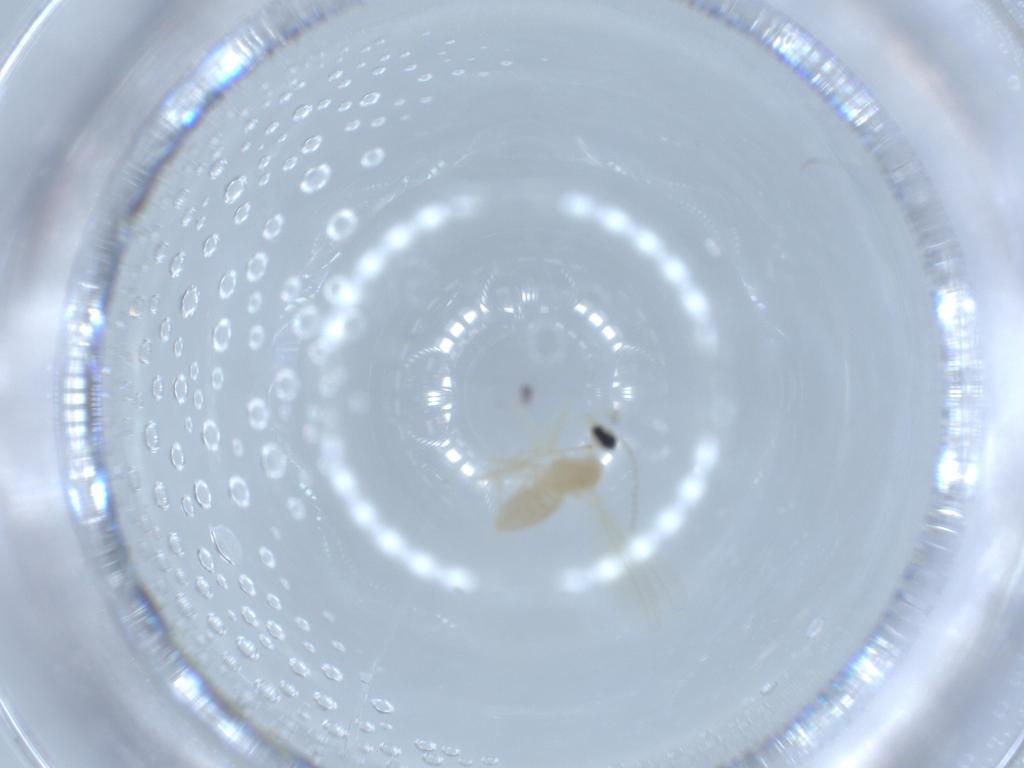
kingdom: Animalia
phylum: Arthropoda
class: Insecta
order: Diptera
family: Cecidomyiidae
